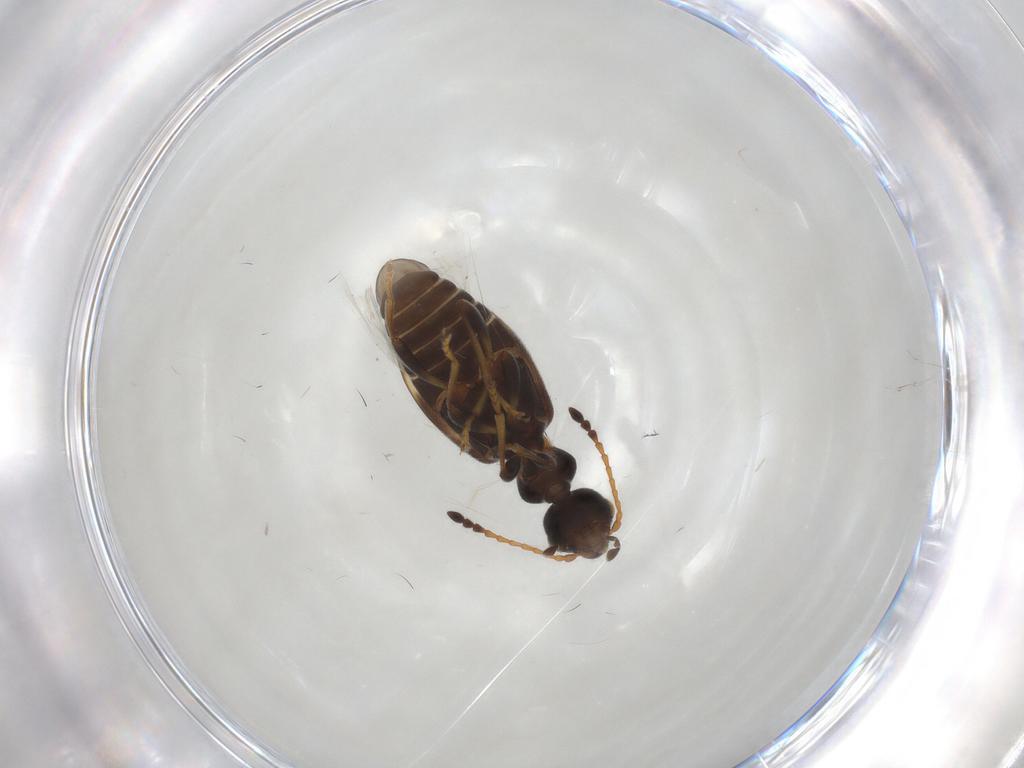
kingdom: Animalia
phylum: Arthropoda
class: Insecta
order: Coleoptera
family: Anthicidae
